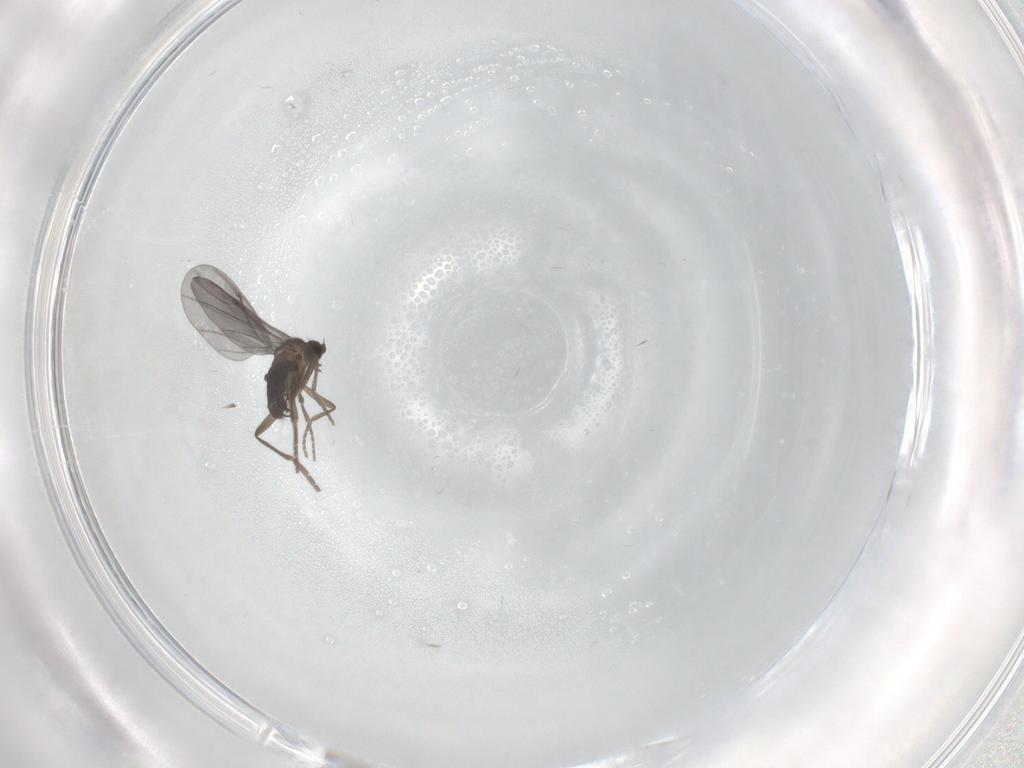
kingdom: Animalia
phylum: Arthropoda
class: Insecta
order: Diptera
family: Phoridae
